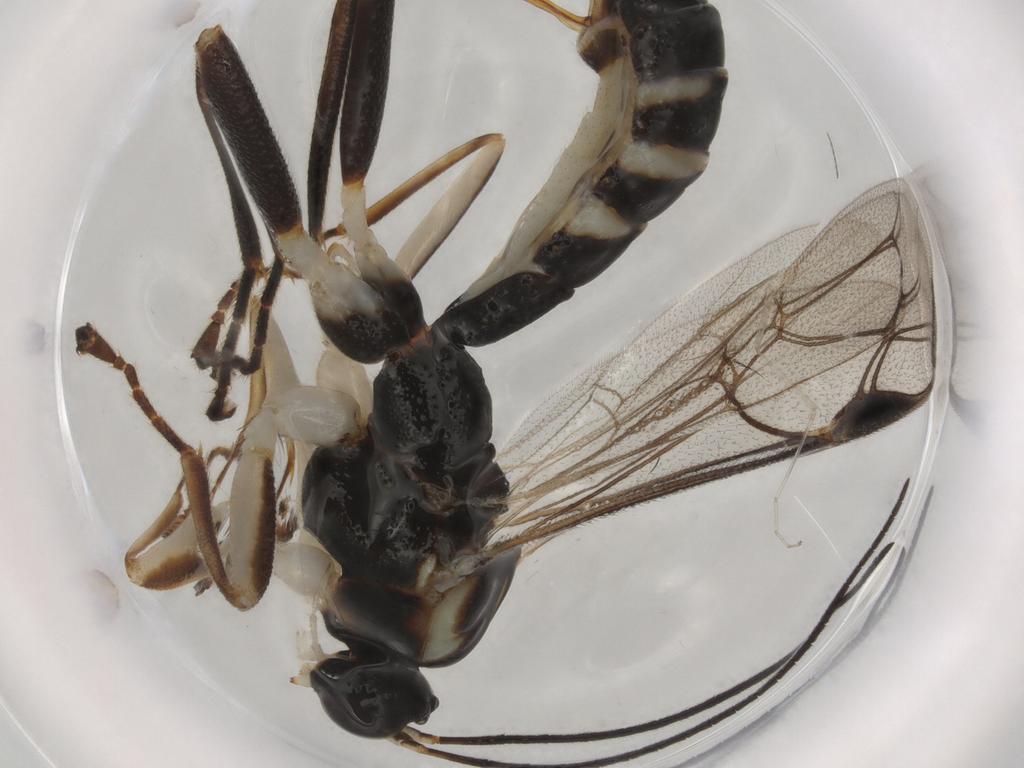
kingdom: Animalia
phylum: Arthropoda
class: Insecta
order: Hymenoptera
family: Ichneumonidae
